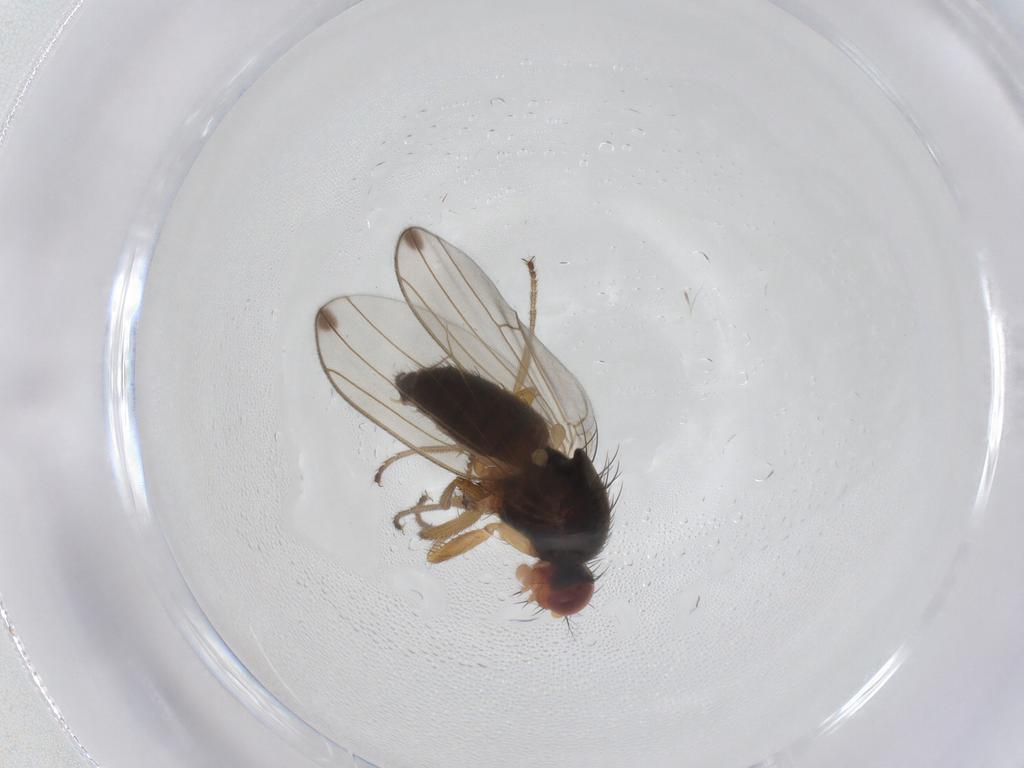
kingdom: Animalia
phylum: Arthropoda
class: Insecta
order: Diptera
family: Drosophilidae
